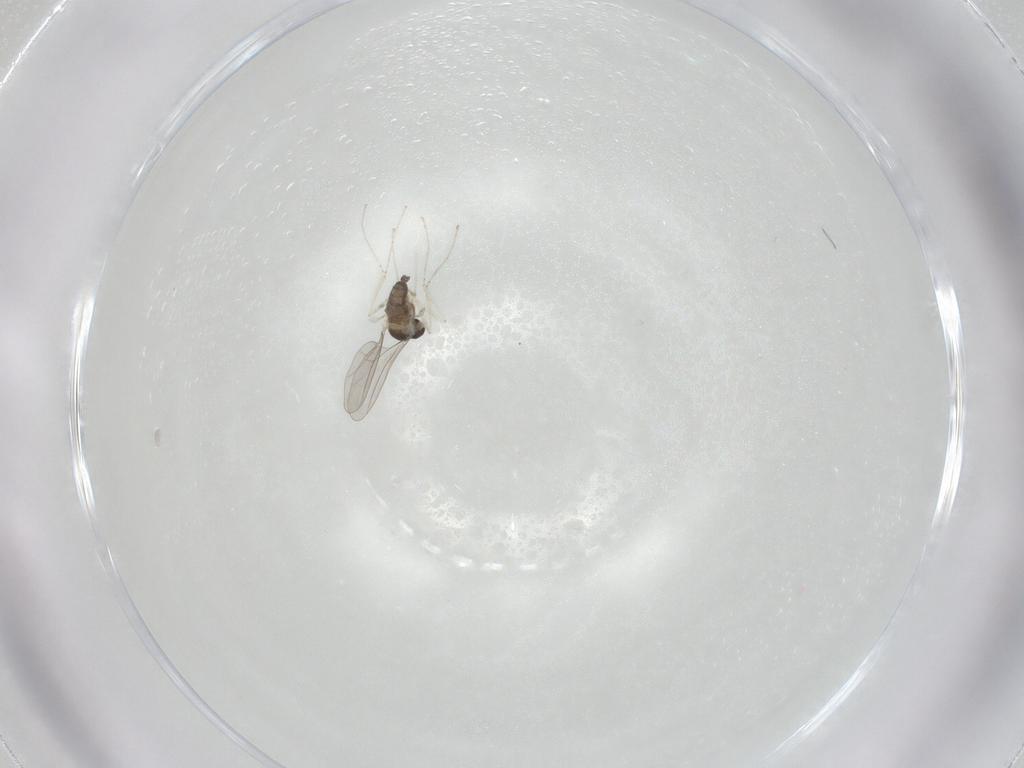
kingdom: Animalia
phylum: Arthropoda
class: Insecta
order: Diptera
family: Cecidomyiidae
